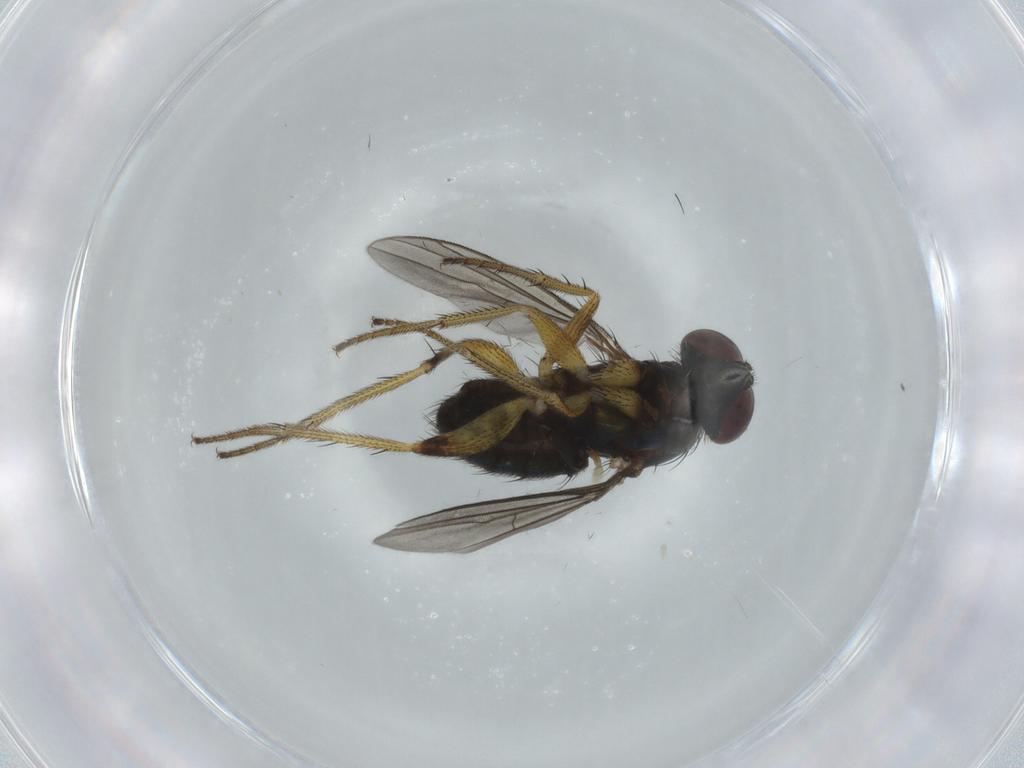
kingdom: Animalia
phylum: Arthropoda
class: Insecta
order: Diptera
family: Dolichopodidae
